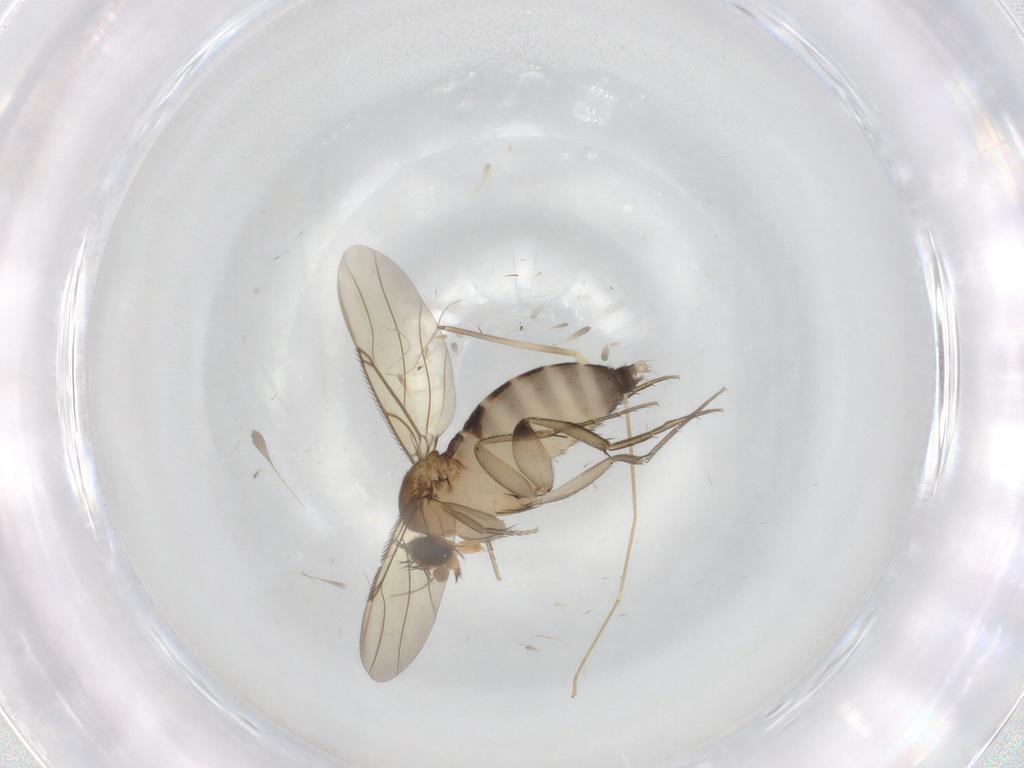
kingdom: Animalia
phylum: Arthropoda
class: Insecta
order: Diptera
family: Phoridae
